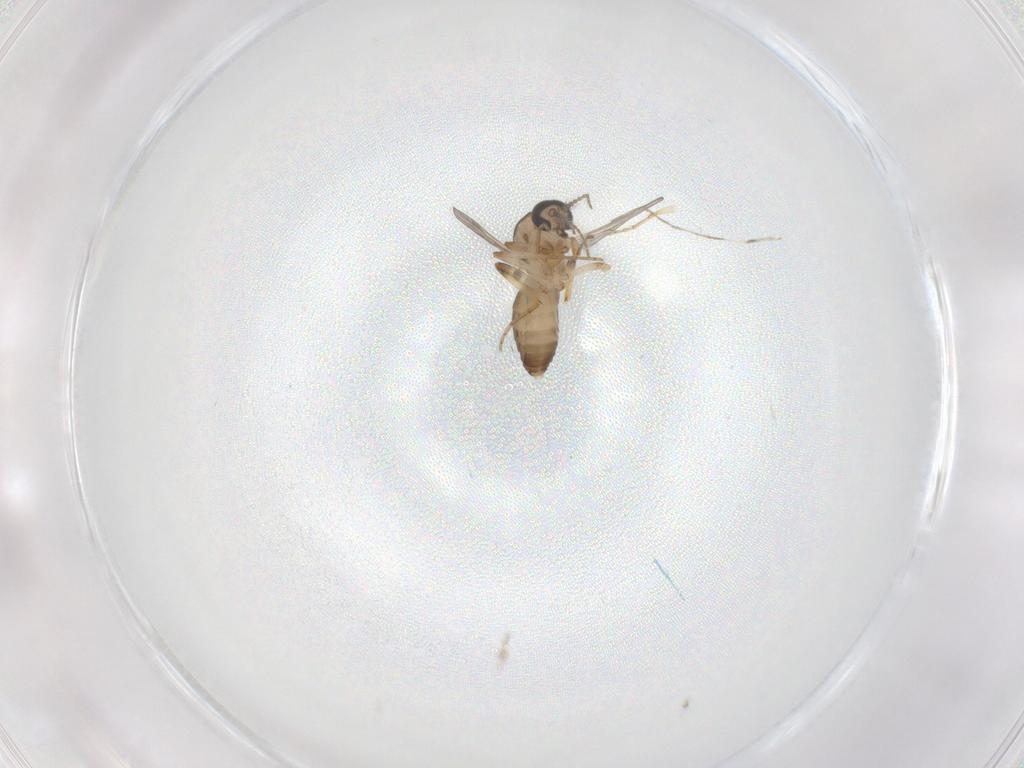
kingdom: Animalia
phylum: Arthropoda
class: Insecta
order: Diptera
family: Ceratopogonidae
